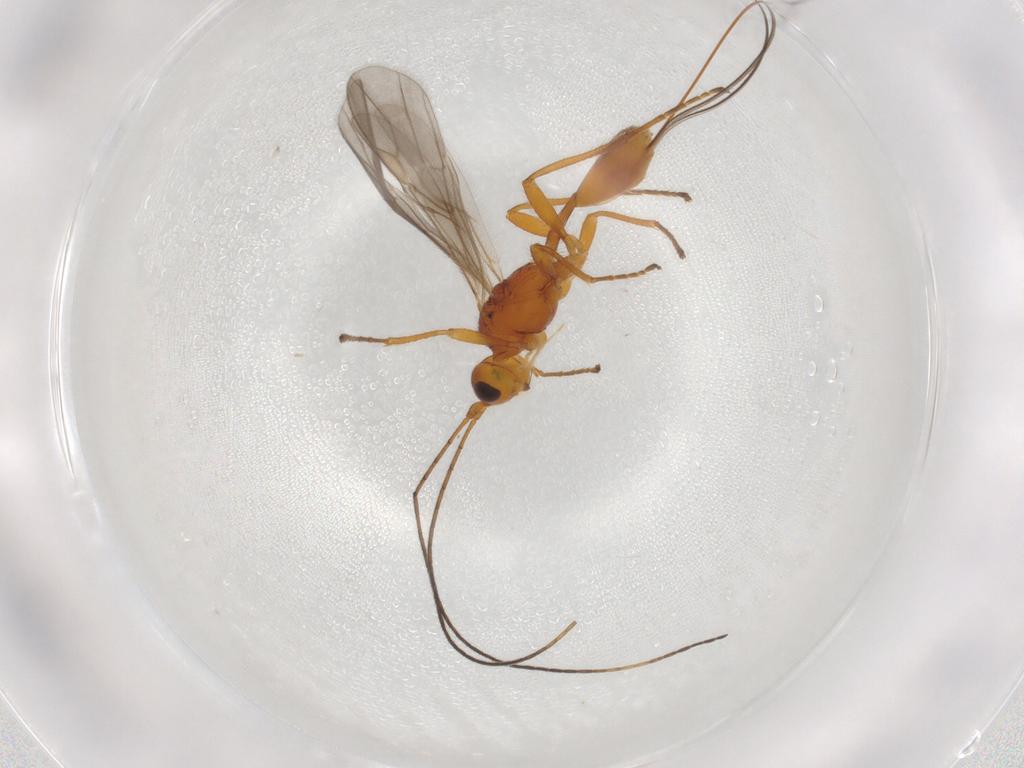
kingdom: Animalia
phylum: Arthropoda
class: Insecta
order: Hymenoptera
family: Braconidae
